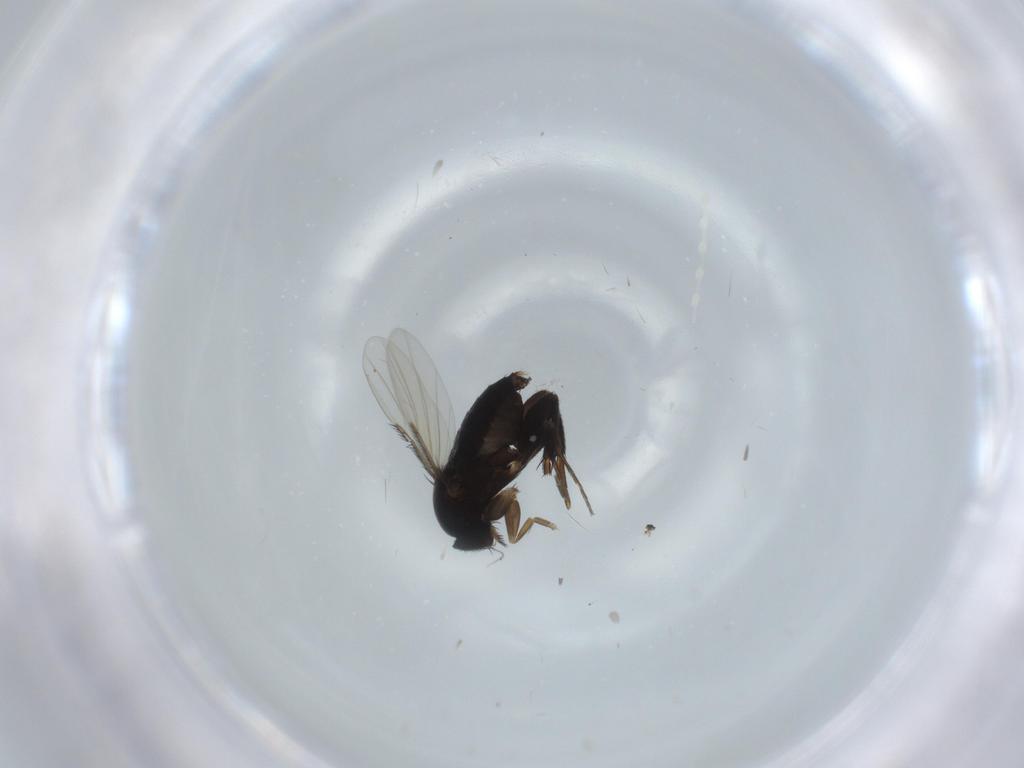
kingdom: Animalia
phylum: Arthropoda
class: Insecta
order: Diptera
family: Phoridae
